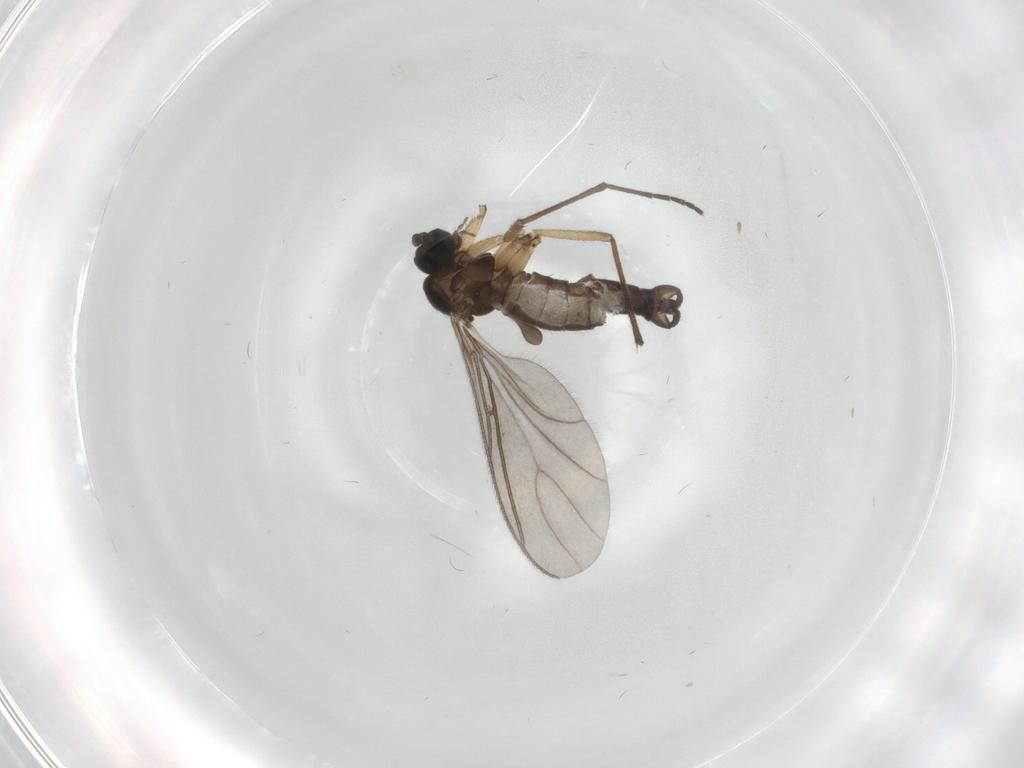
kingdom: Animalia
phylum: Arthropoda
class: Insecta
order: Diptera
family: Sciaridae
